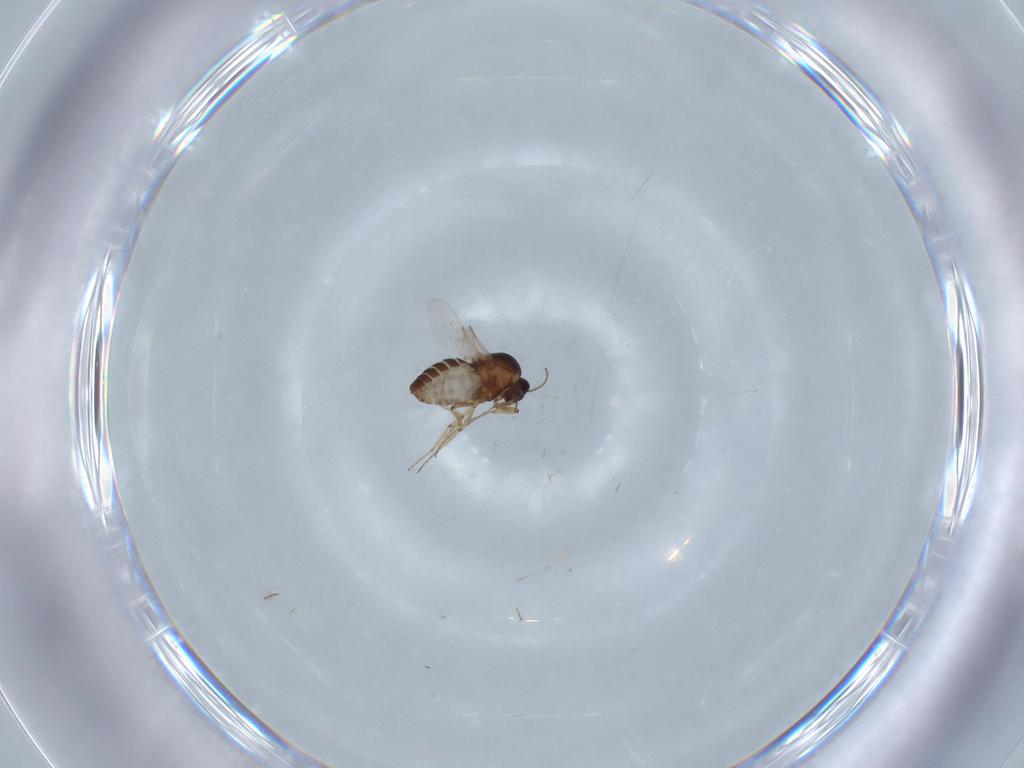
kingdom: Animalia
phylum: Arthropoda
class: Insecta
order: Diptera
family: Ceratopogonidae
